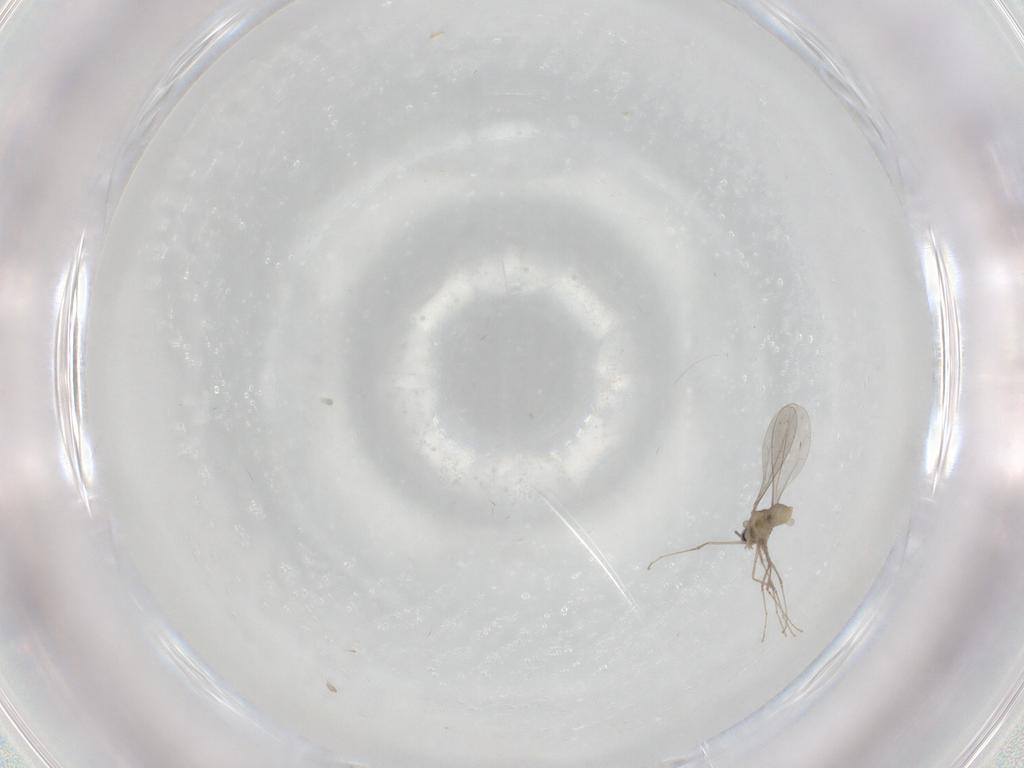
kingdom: Animalia
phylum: Arthropoda
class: Insecta
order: Diptera
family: Cecidomyiidae
